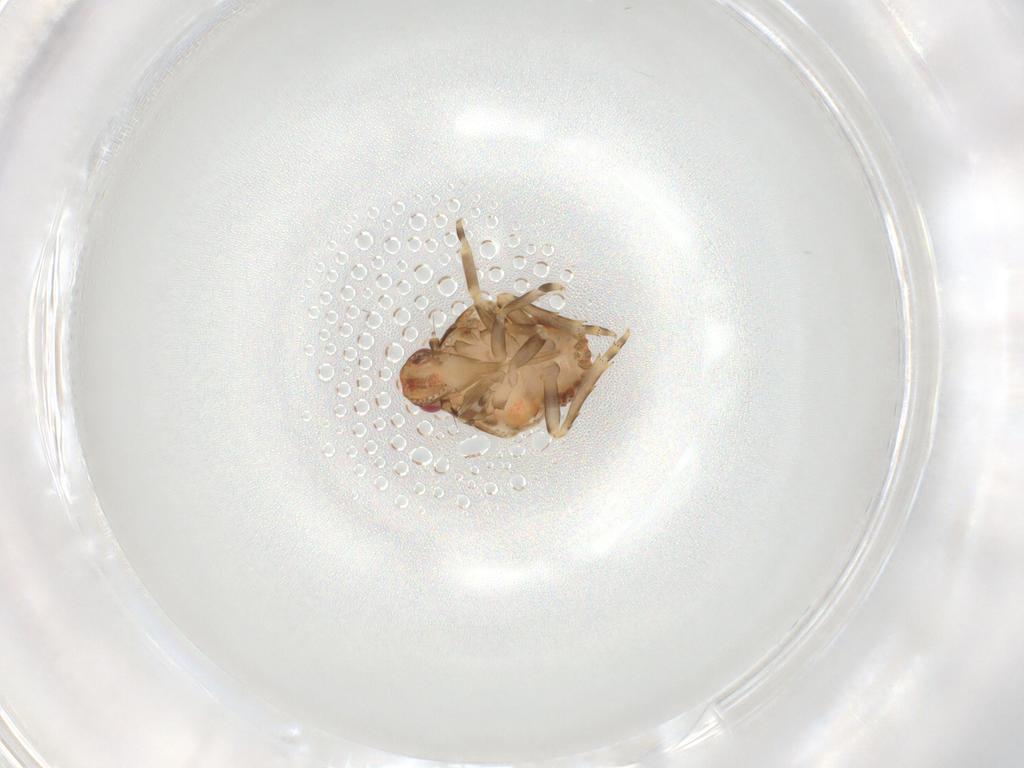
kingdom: Animalia
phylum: Arthropoda
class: Insecta
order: Hemiptera
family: Flatidae
